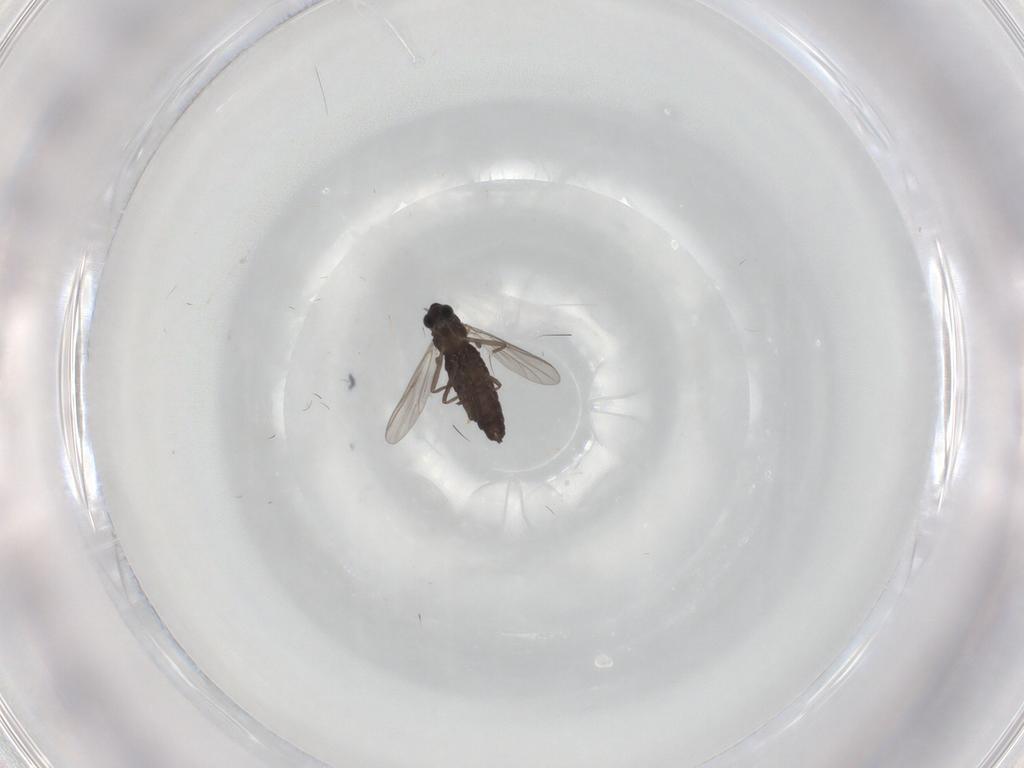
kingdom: Animalia
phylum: Arthropoda
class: Insecta
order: Diptera
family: Chironomidae
